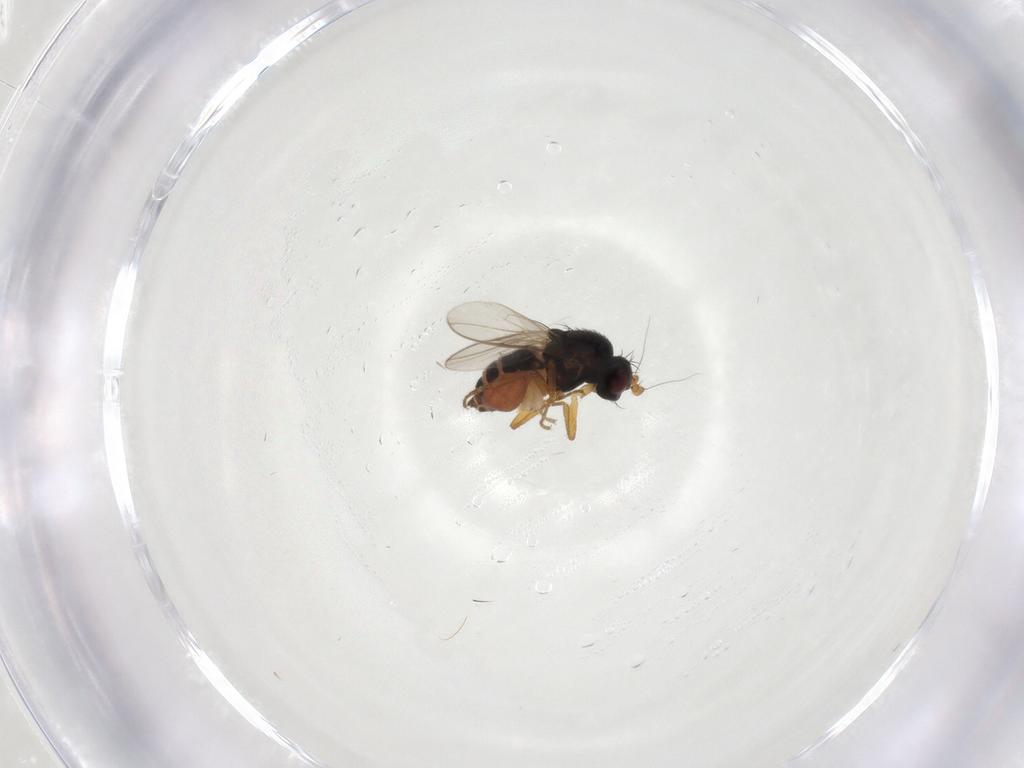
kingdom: Animalia
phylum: Arthropoda
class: Insecta
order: Diptera
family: Sphaeroceridae
